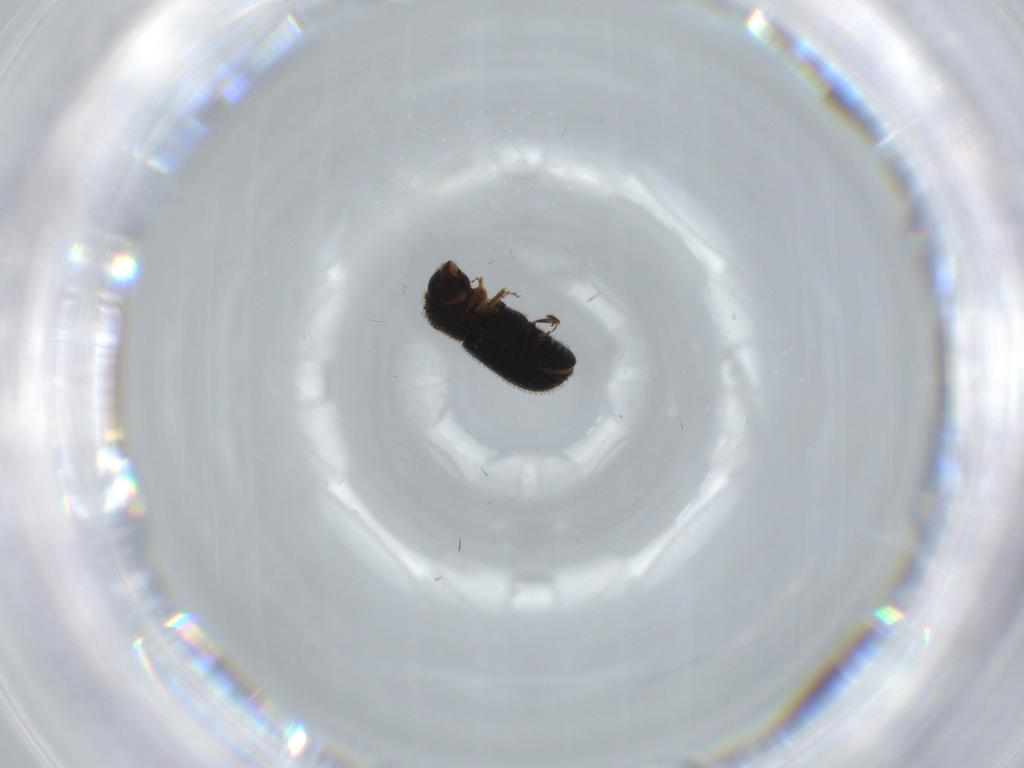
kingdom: Animalia
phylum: Arthropoda
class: Insecta
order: Coleoptera
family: Curculionidae
